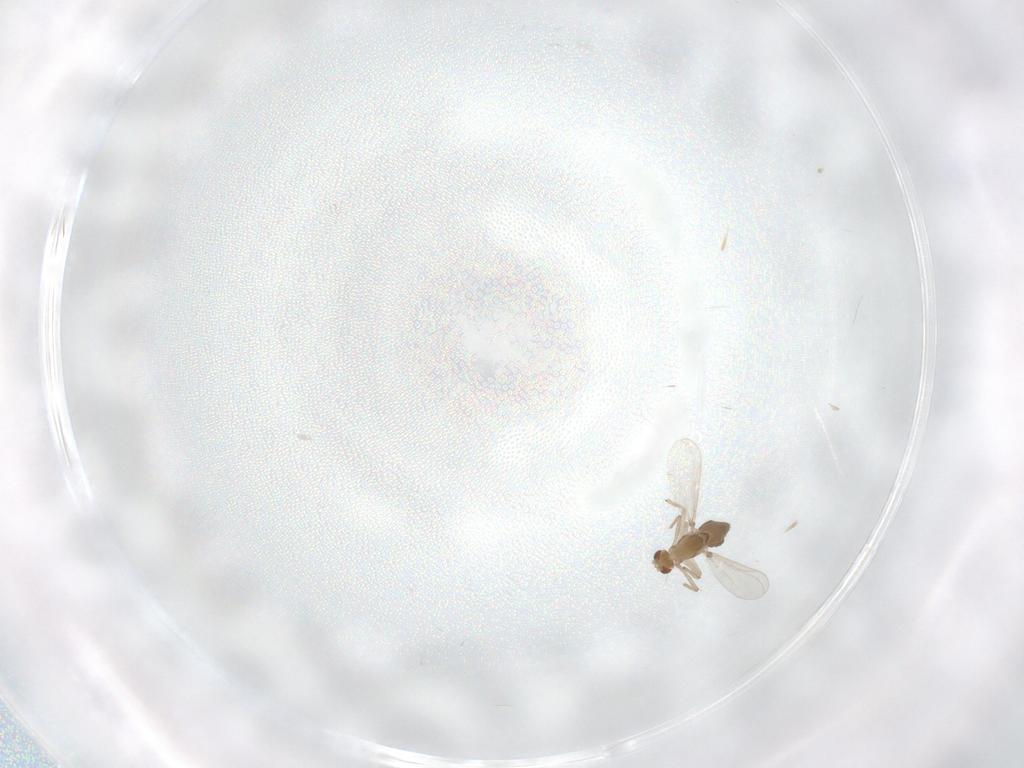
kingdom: Animalia
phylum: Arthropoda
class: Insecta
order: Diptera
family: Chironomidae
